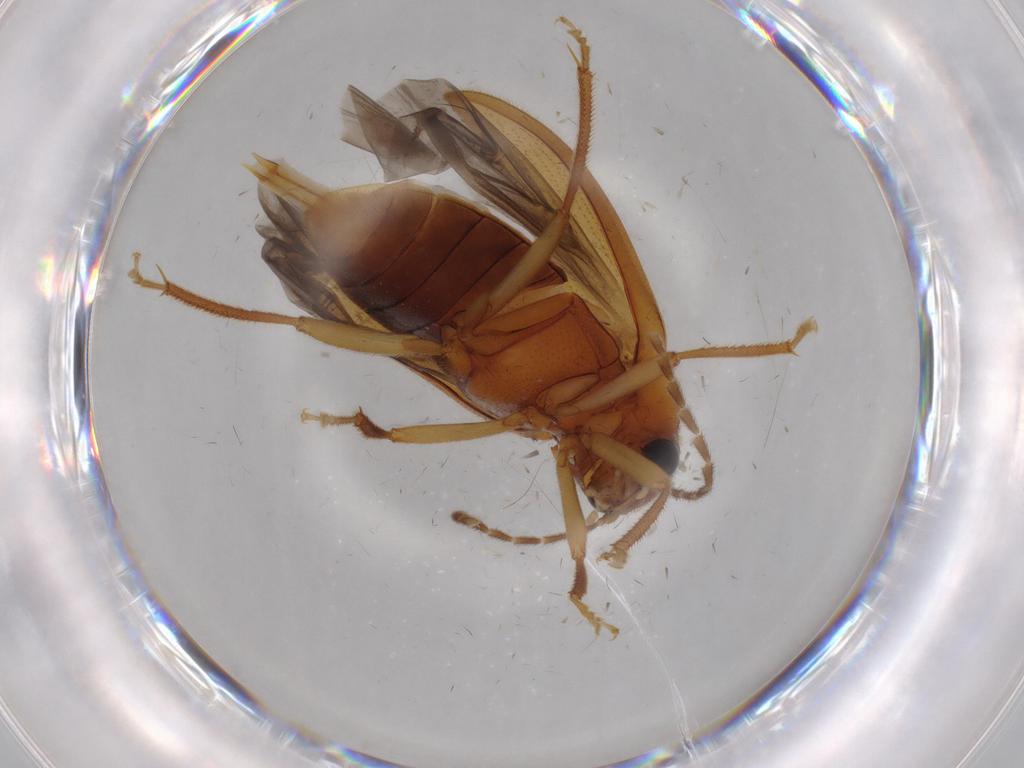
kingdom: Animalia
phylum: Arthropoda
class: Insecta
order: Coleoptera
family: Ptilodactylidae
